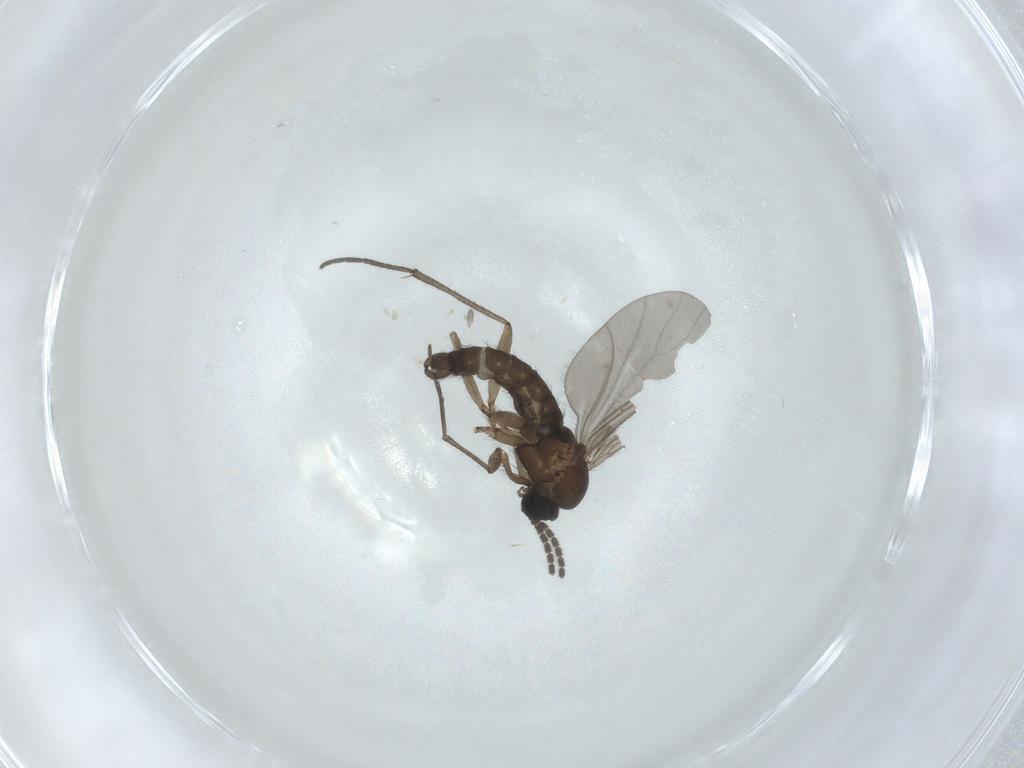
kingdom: Animalia
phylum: Arthropoda
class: Insecta
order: Diptera
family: Sciaridae
